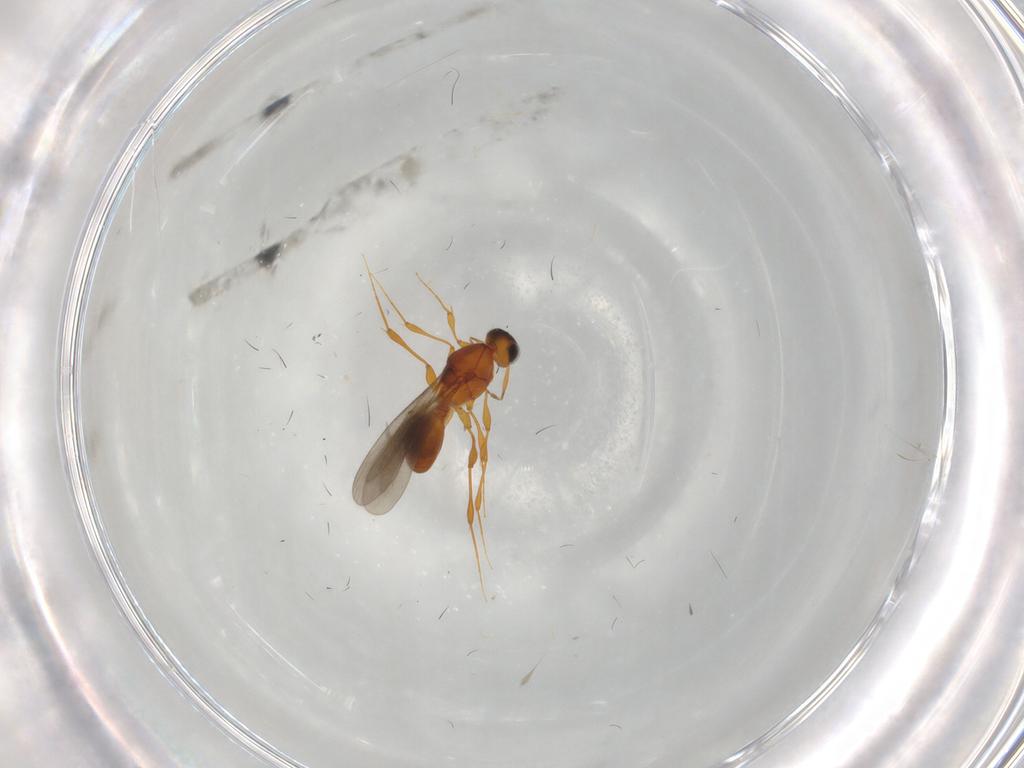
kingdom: Animalia
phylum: Arthropoda
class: Insecta
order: Hymenoptera
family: Platygastridae
